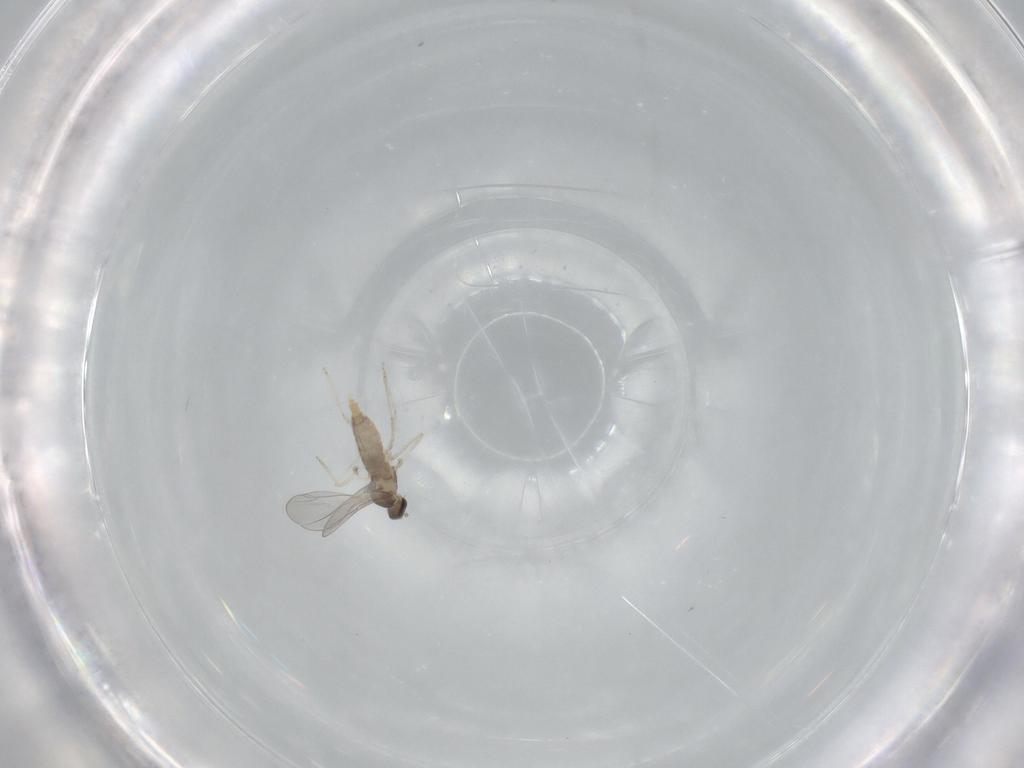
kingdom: Animalia
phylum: Arthropoda
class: Insecta
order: Diptera
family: Cecidomyiidae
